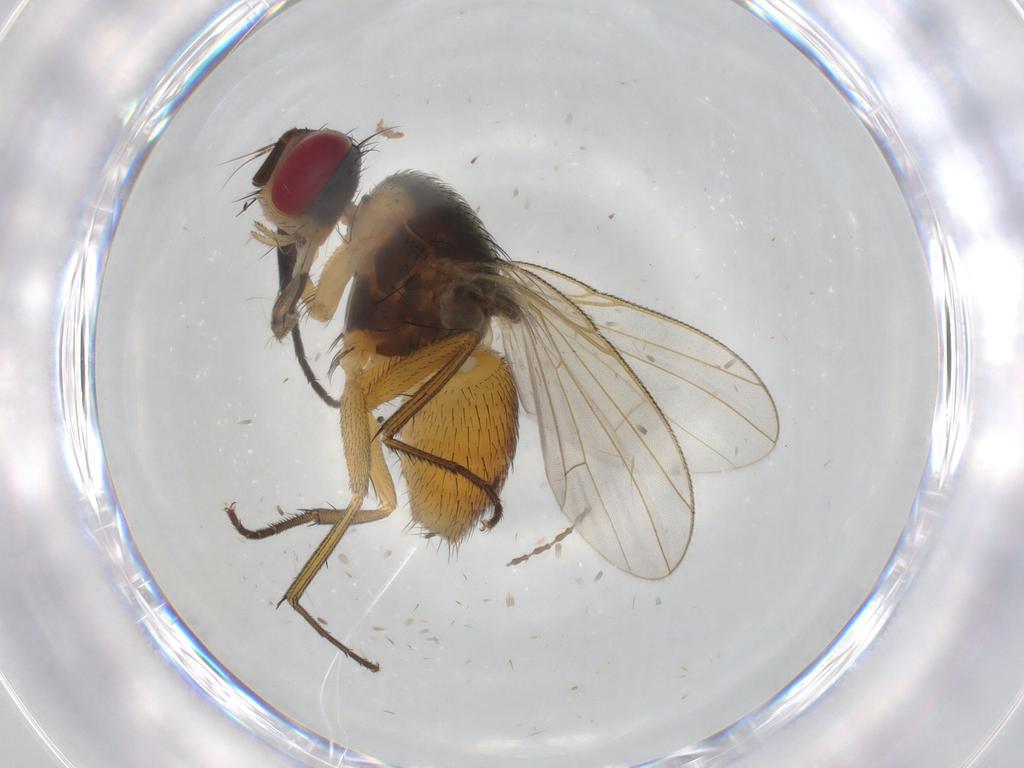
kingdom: Animalia
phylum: Arthropoda
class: Insecta
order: Diptera
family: Muscidae
